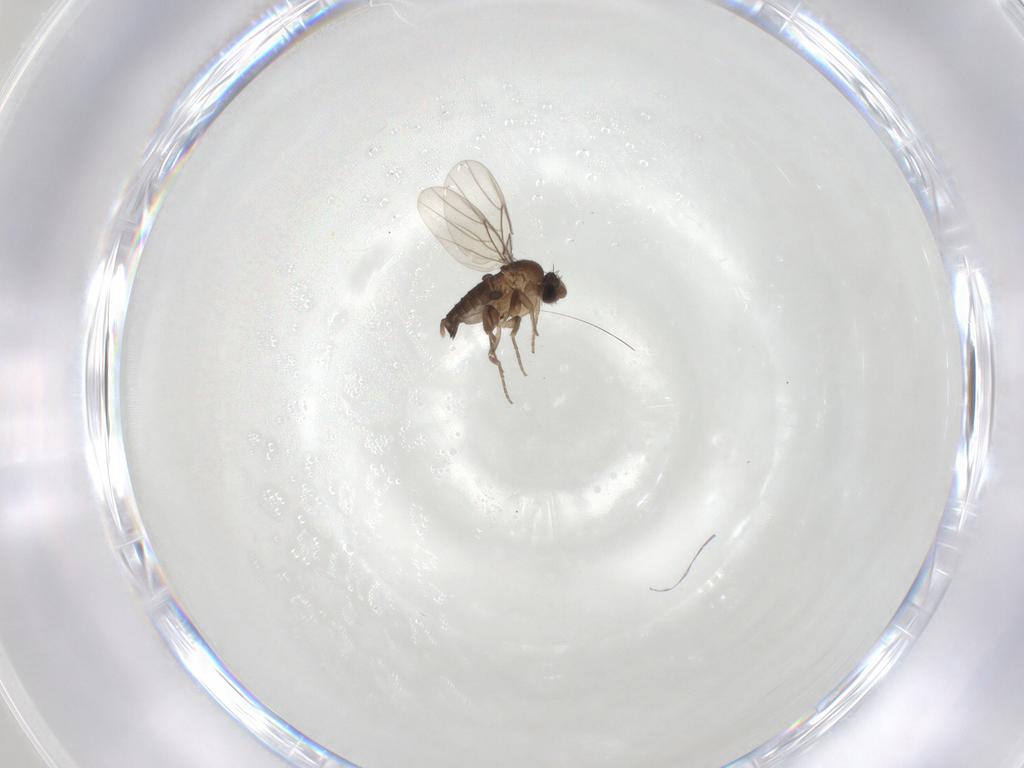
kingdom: Animalia
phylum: Arthropoda
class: Insecta
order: Diptera
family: Phoridae
